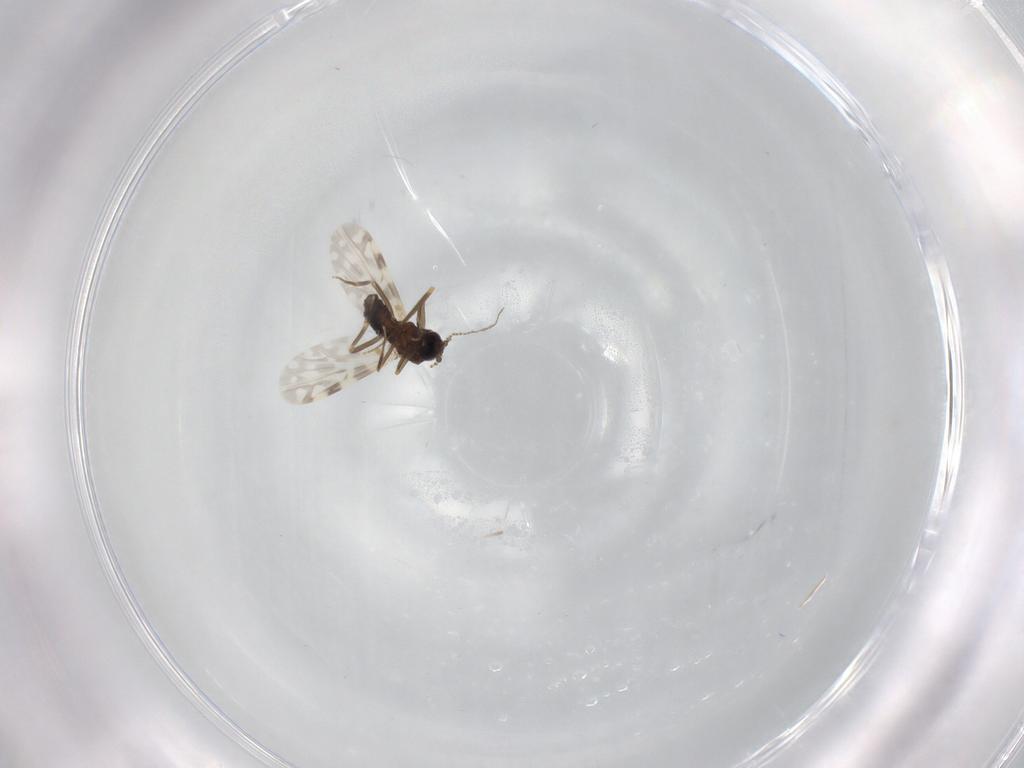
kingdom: Animalia
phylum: Arthropoda
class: Insecta
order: Diptera
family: Ceratopogonidae
